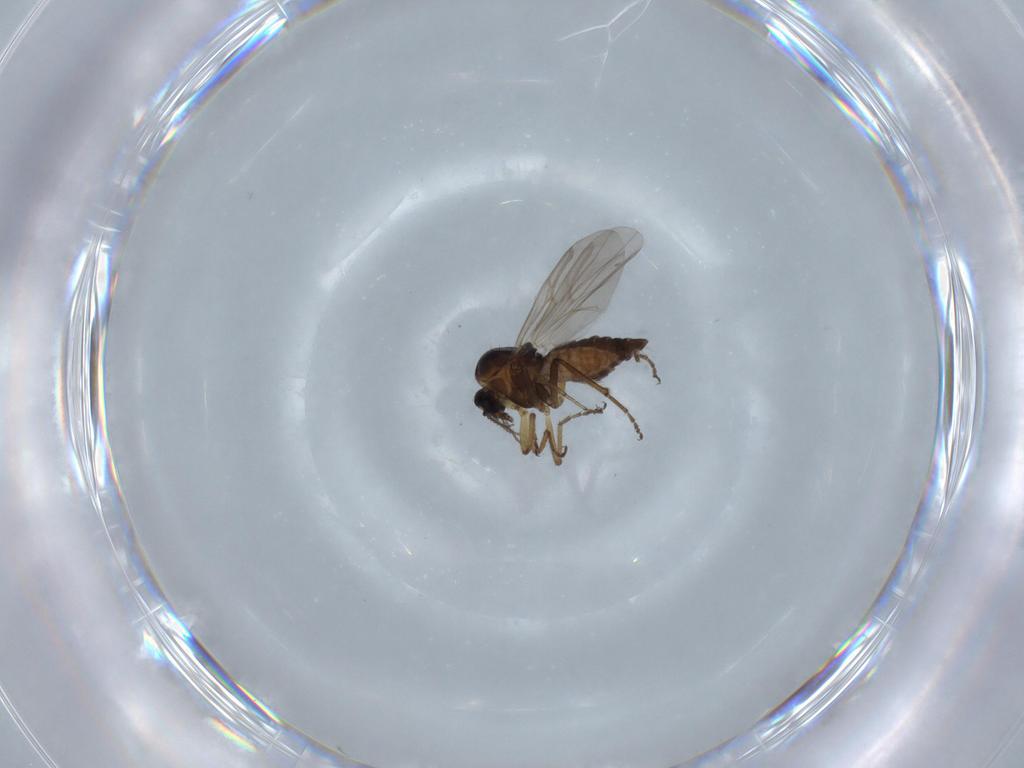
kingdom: Animalia
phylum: Arthropoda
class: Insecta
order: Diptera
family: Ceratopogonidae
